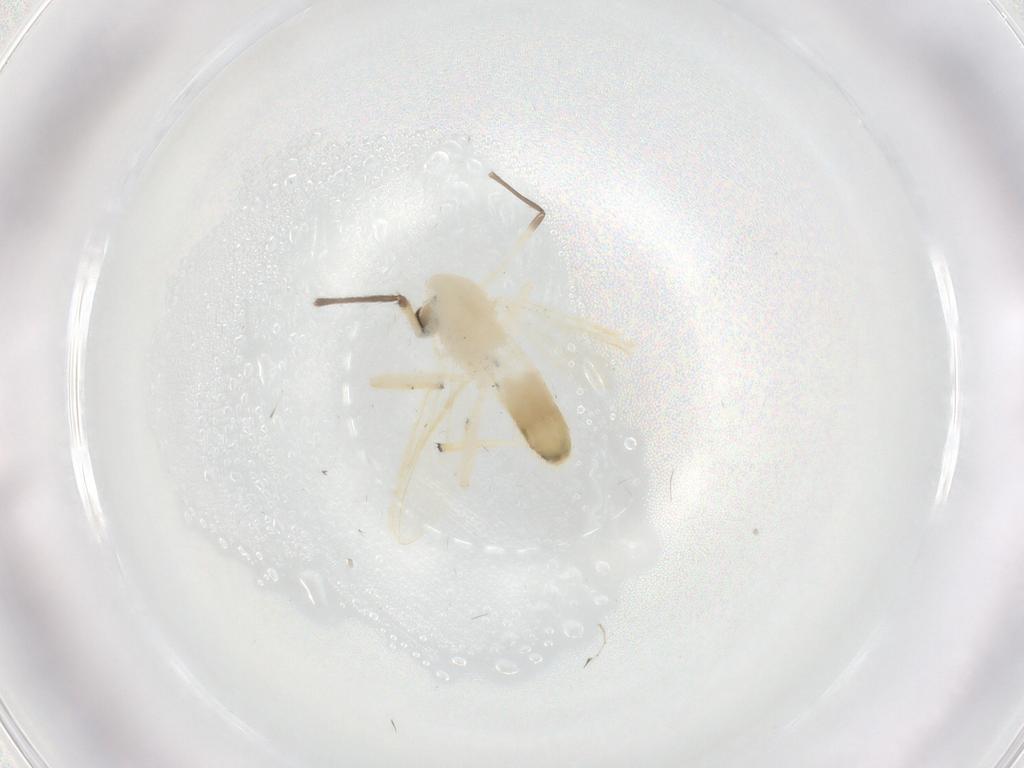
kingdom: Animalia
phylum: Arthropoda
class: Insecta
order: Diptera
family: Chironomidae
